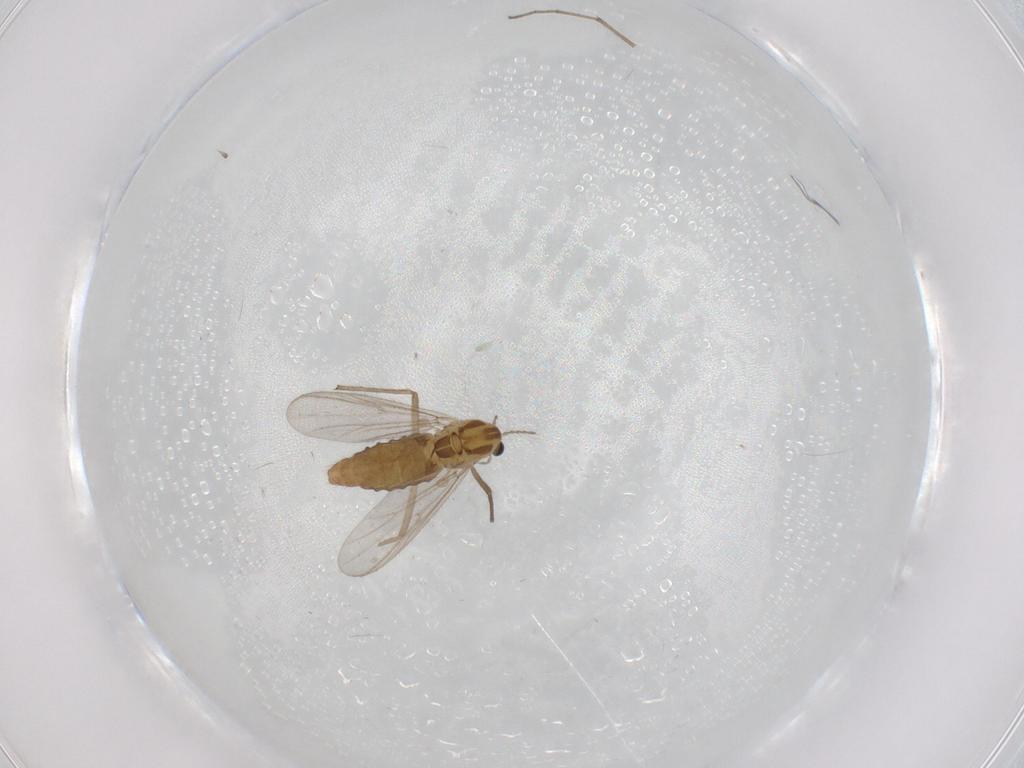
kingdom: Animalia
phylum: Arthropoda
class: Insecta
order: Diptera
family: Chironomidae
